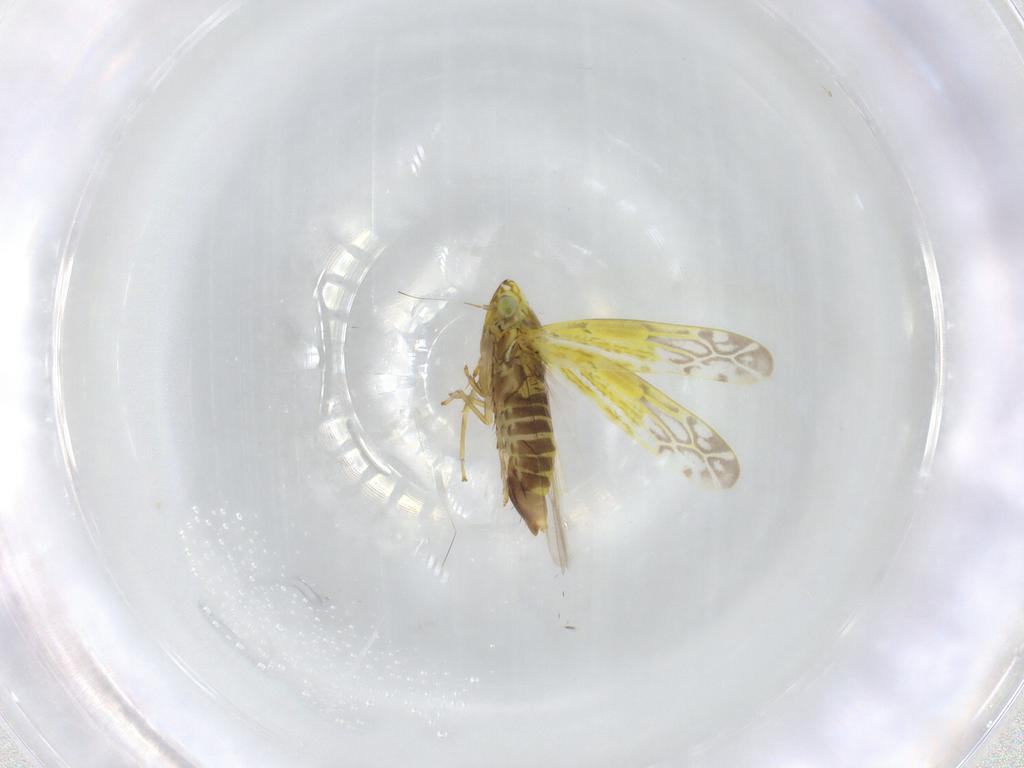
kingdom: Animalia
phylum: Arthropoda
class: Insecta
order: Hemiptera
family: Cicadellidae
